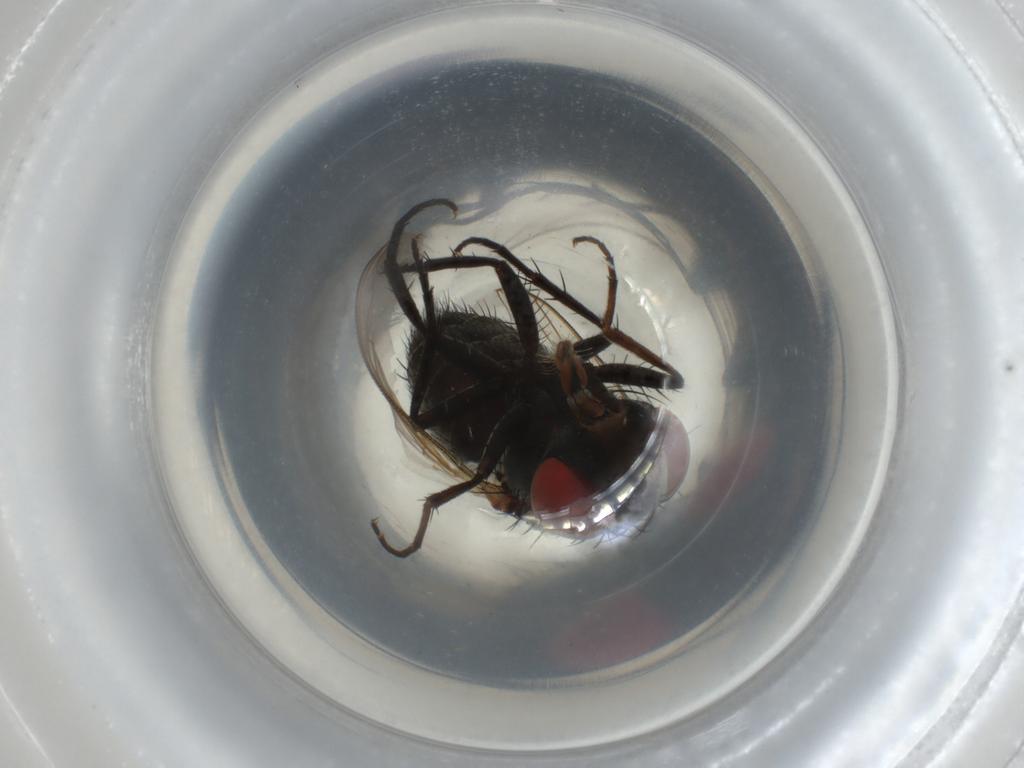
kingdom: Animalia
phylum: Arthropoda
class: Insecta
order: Diptera
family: Sarcophagidae
